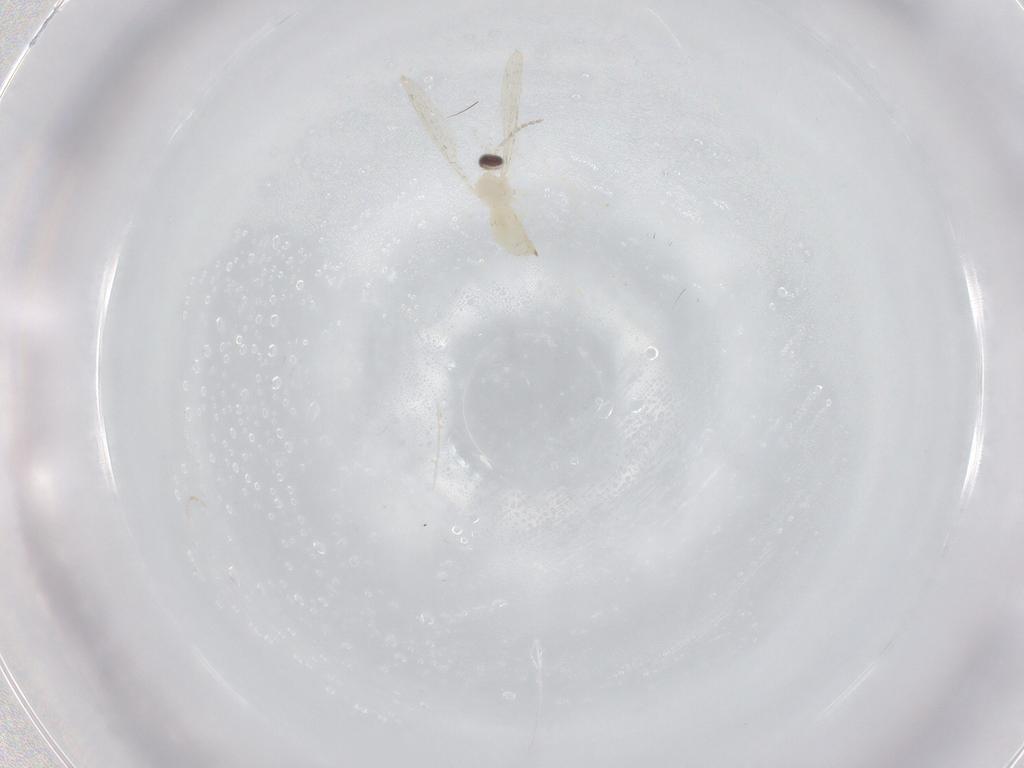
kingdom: Animalia
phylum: Arthropoda
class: Insecta
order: Diptera
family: Cecidomyiidae
